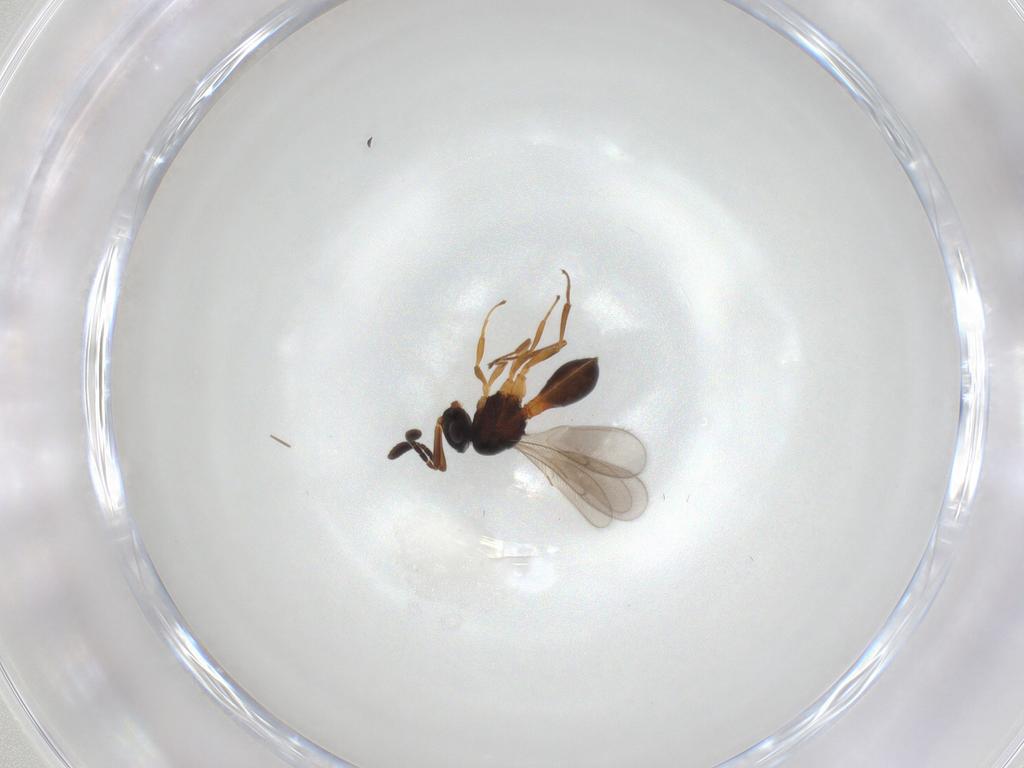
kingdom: Animalia
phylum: Arthropoda
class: Insecta
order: Hymenoptera
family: Scelionidae
